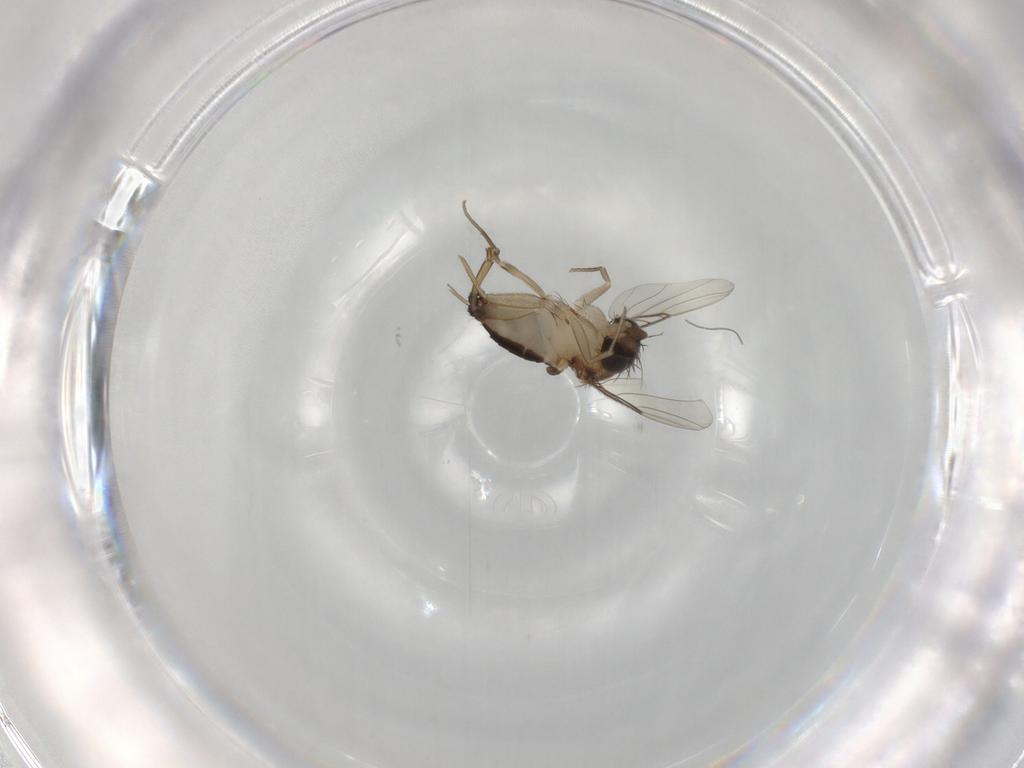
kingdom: Animalia
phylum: Arthropoda
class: Insecta
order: Diptera
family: Phoridae
